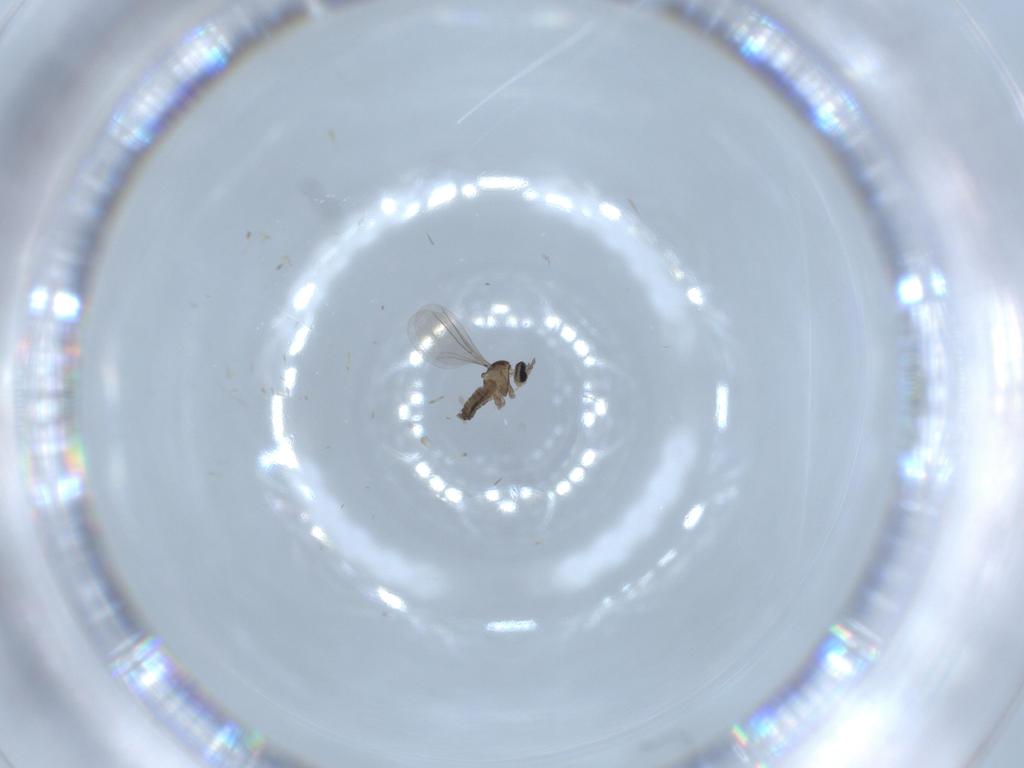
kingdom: Animalia
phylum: Arthropoda
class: Insecta
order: Diptera
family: Cecidomyiidae
